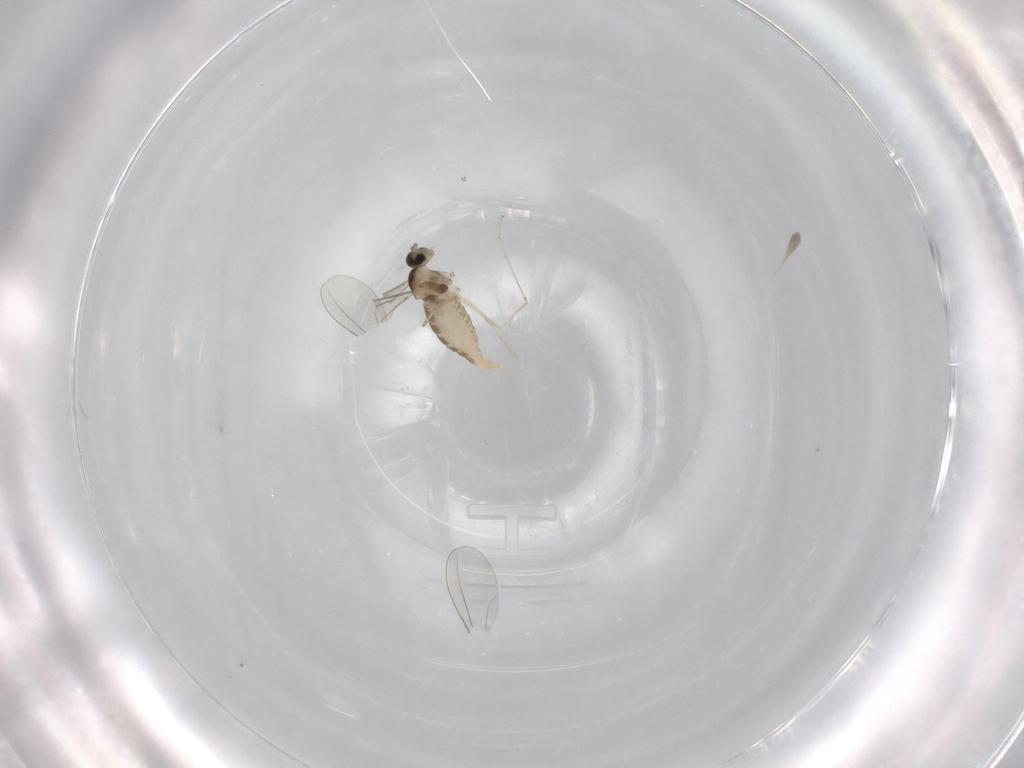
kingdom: Animalia
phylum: Arthropoda
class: Insecta
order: Diptera
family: Cecidomyiidae
